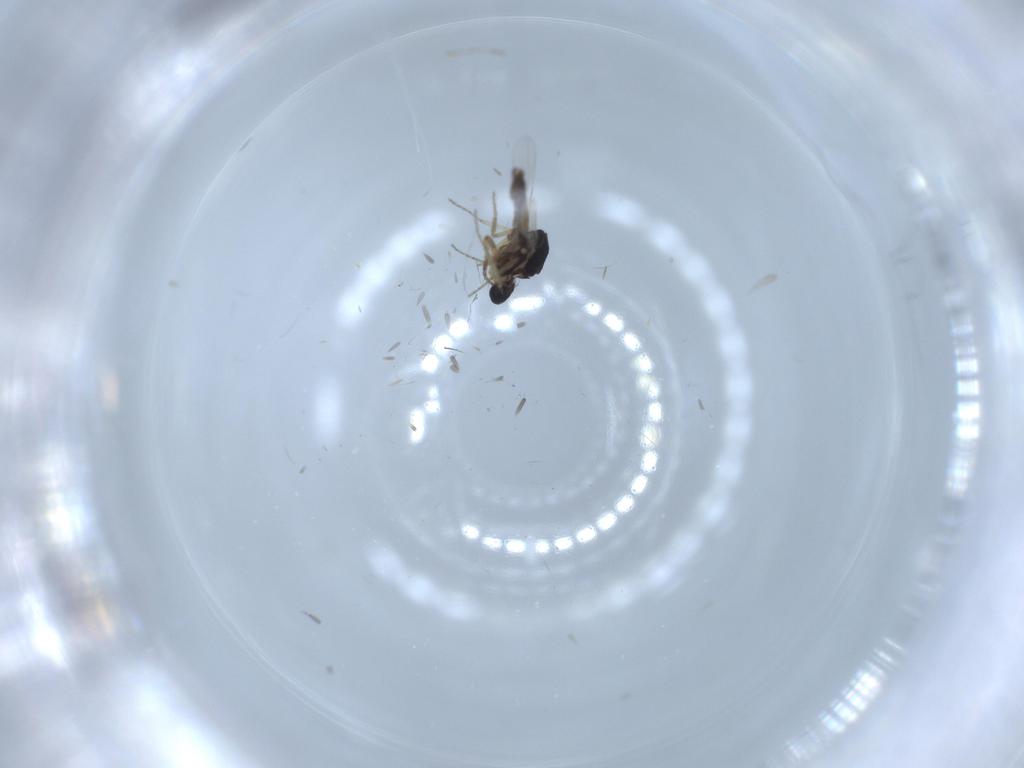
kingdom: Animalia
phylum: Arthropoda
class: Insecta
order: Diptera
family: Ceratopogonidae
